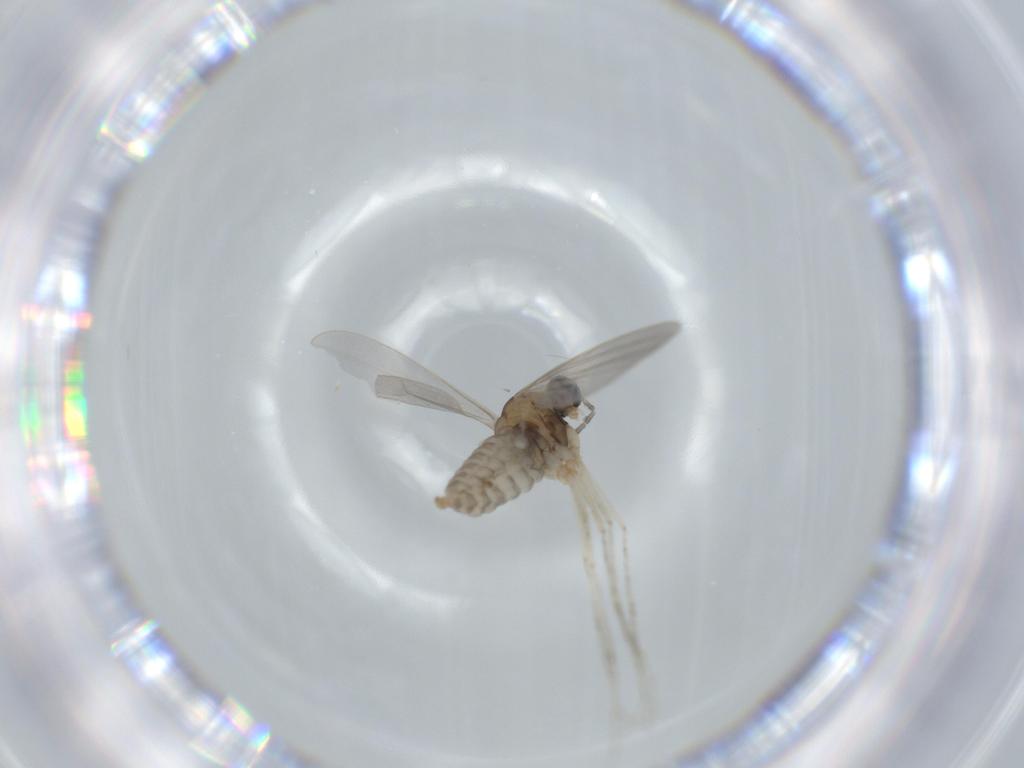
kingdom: Animalia
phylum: Arthropoda
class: Insecta
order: Diptera
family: Cecidomyiidae
